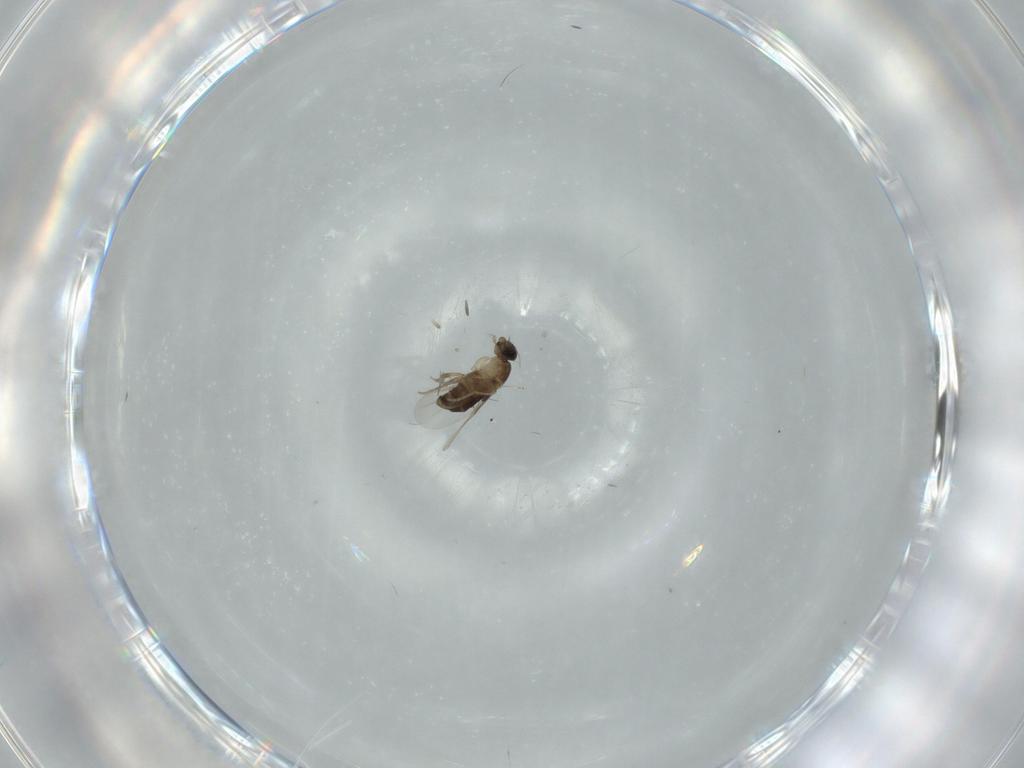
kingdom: Animalia
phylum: Arthropoda
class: Insecta
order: Diptera
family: Phoridae
